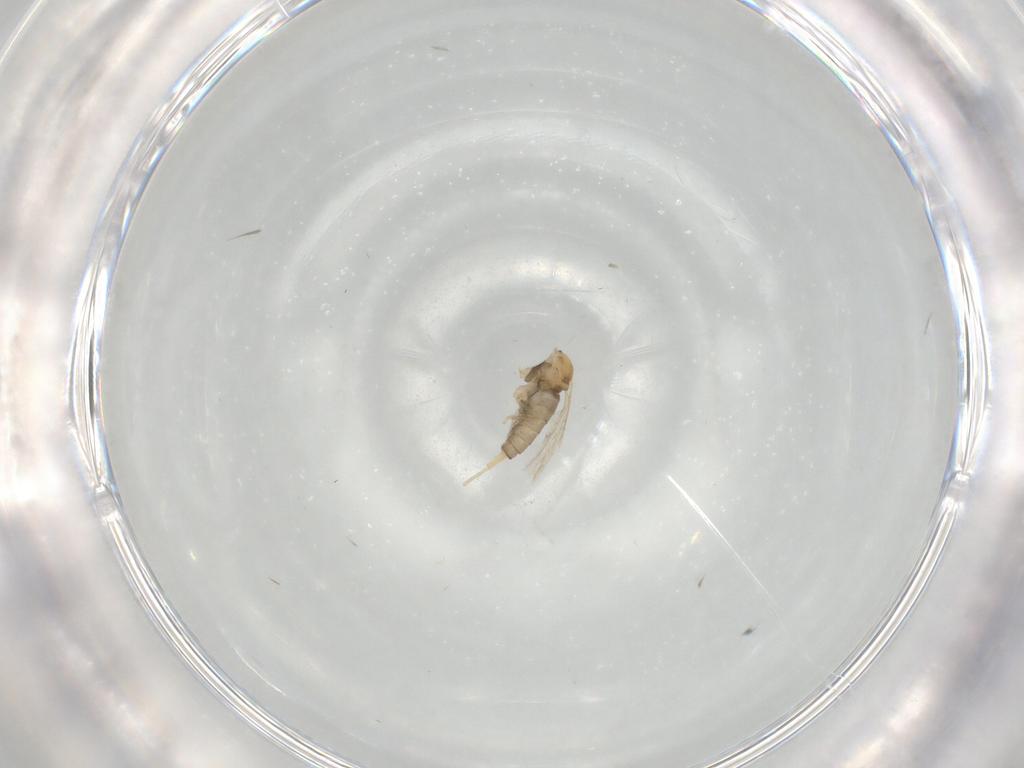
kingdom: Animalia
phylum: Arthropoda
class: Insecta
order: Diptera
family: Cecidomyiidae
